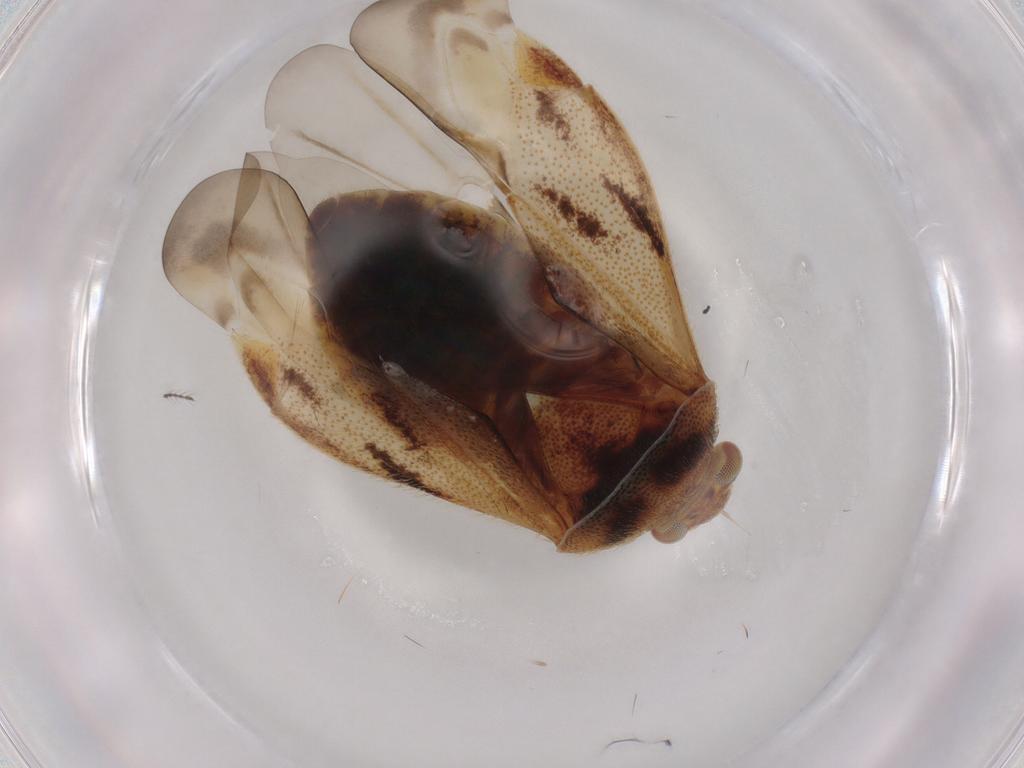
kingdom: Animalia
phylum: Arthropoda
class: Insecta
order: Hemiptera
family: Miridae
